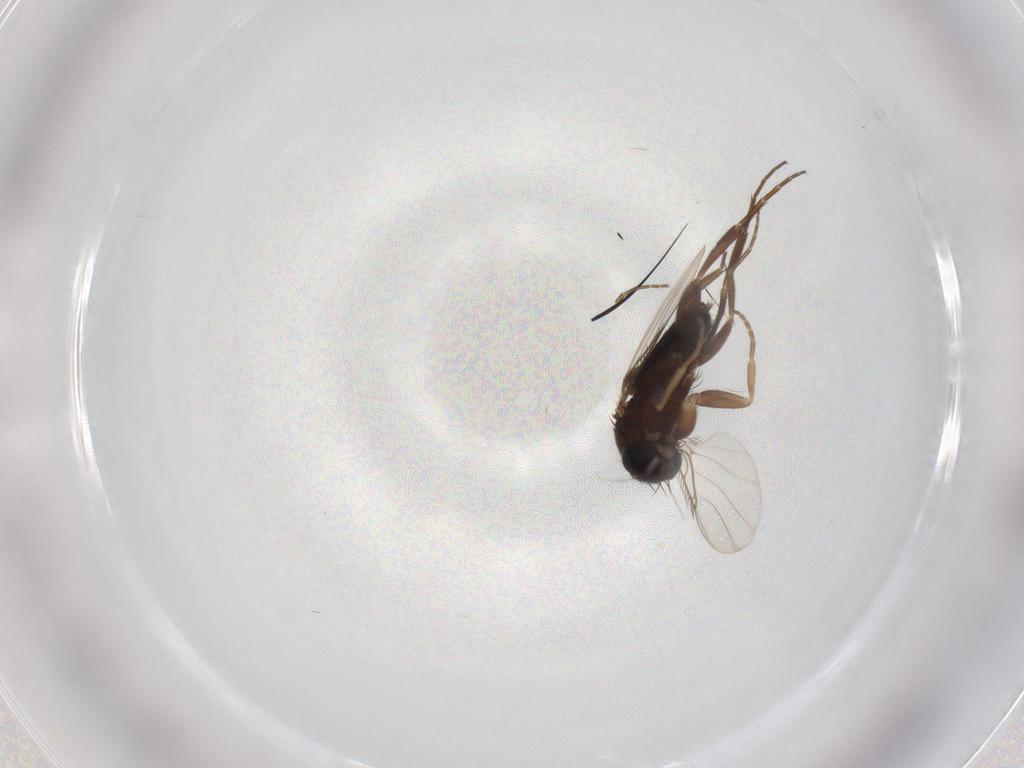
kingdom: Animalia
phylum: Arthropoda
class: Insecta
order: Diptera
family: Phoridae
